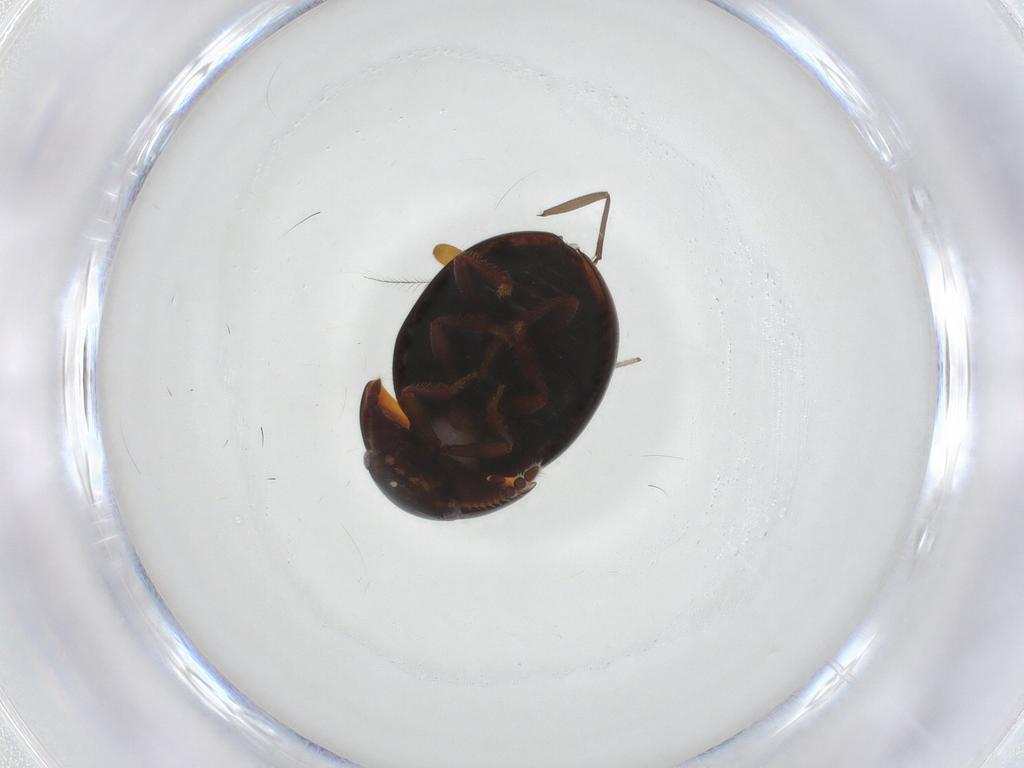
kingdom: Animalia
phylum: Arthropoda
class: Insecta
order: Coleoptera
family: Leiodidae
